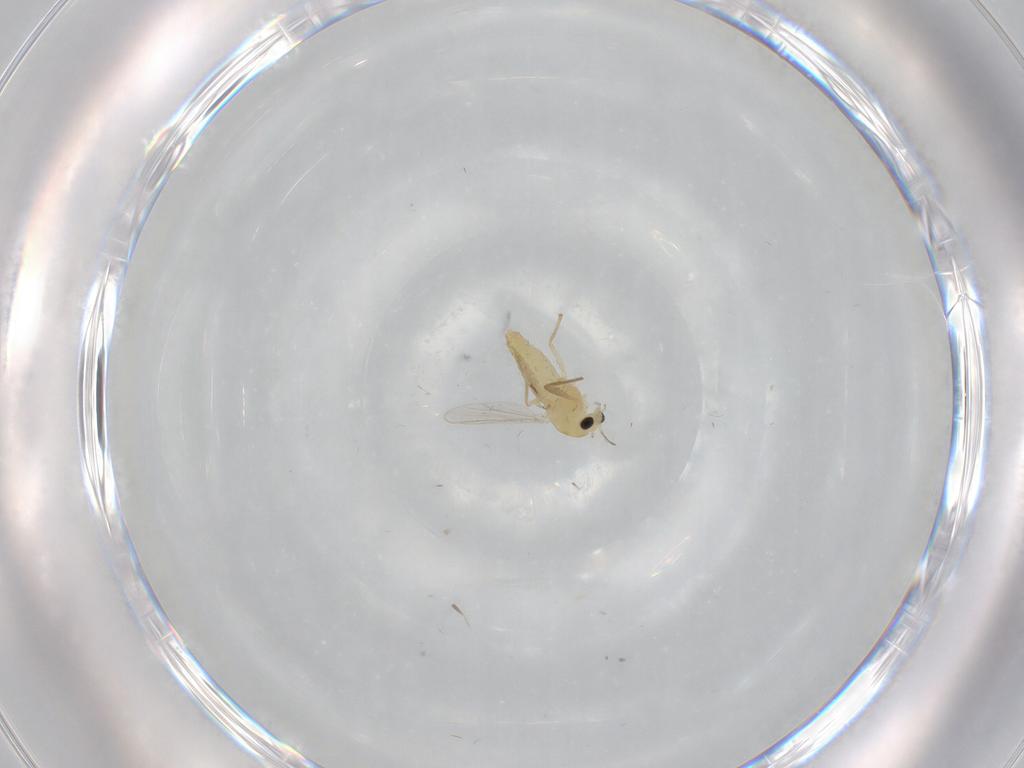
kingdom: Animalia
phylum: Arthropoda
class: Insecta
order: Diptera
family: Chironomidae
